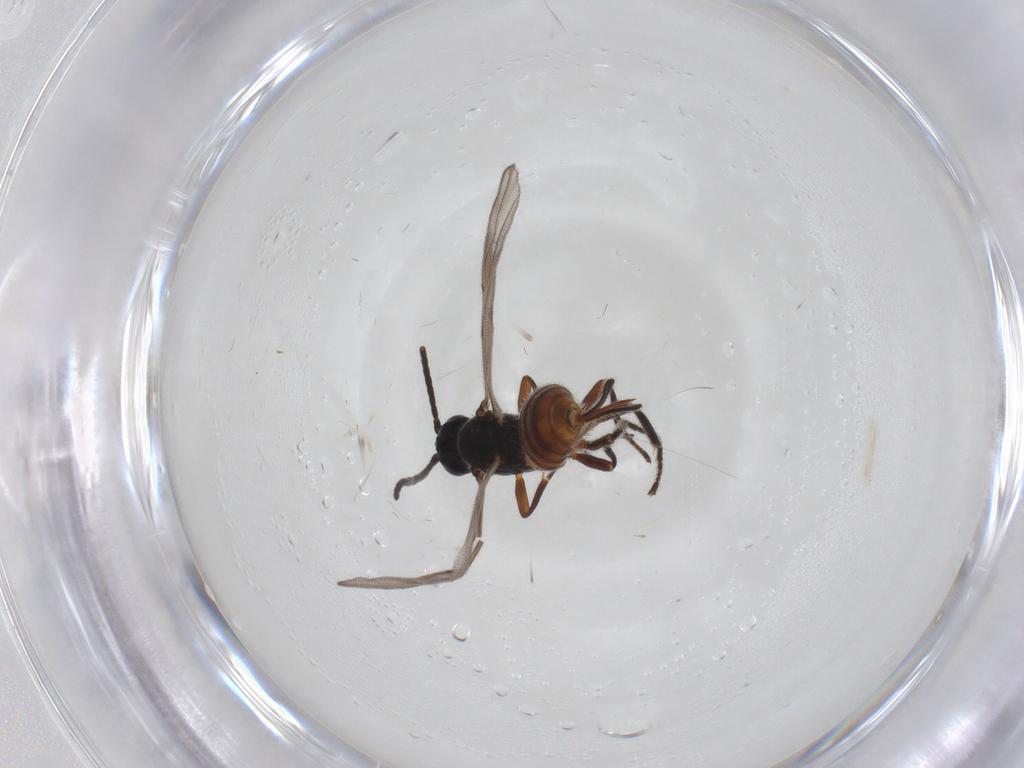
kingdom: Animalia
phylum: Arthropoda
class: Insecta
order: Hymenoptera
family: Braconidae
